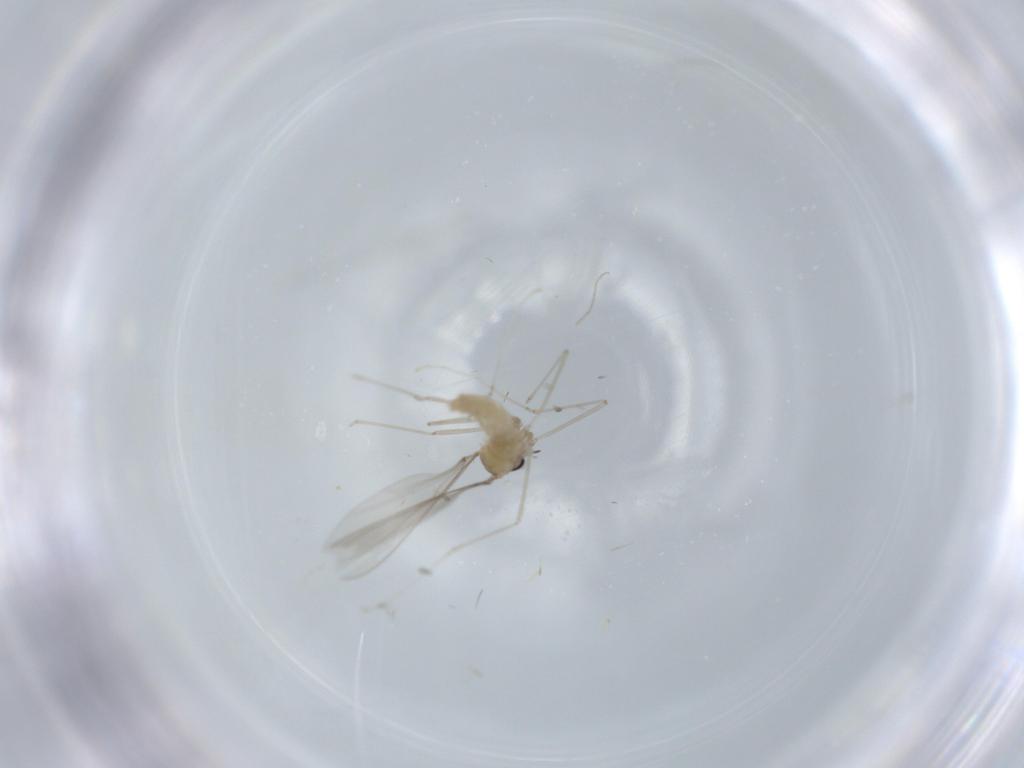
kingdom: Animalia
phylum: Arthropoda
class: Insecta
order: Diptera
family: Cecidomyiidae
